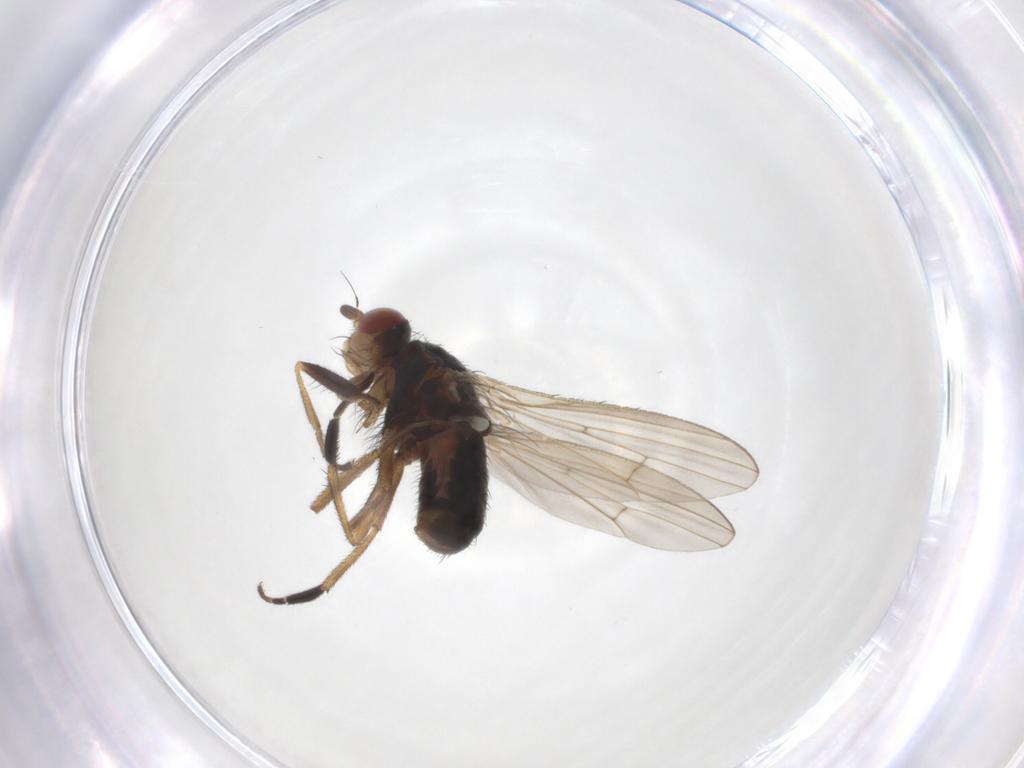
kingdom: Animalia
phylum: Arthropoda
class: Insecta
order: Diptera
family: Heleomyzidae
